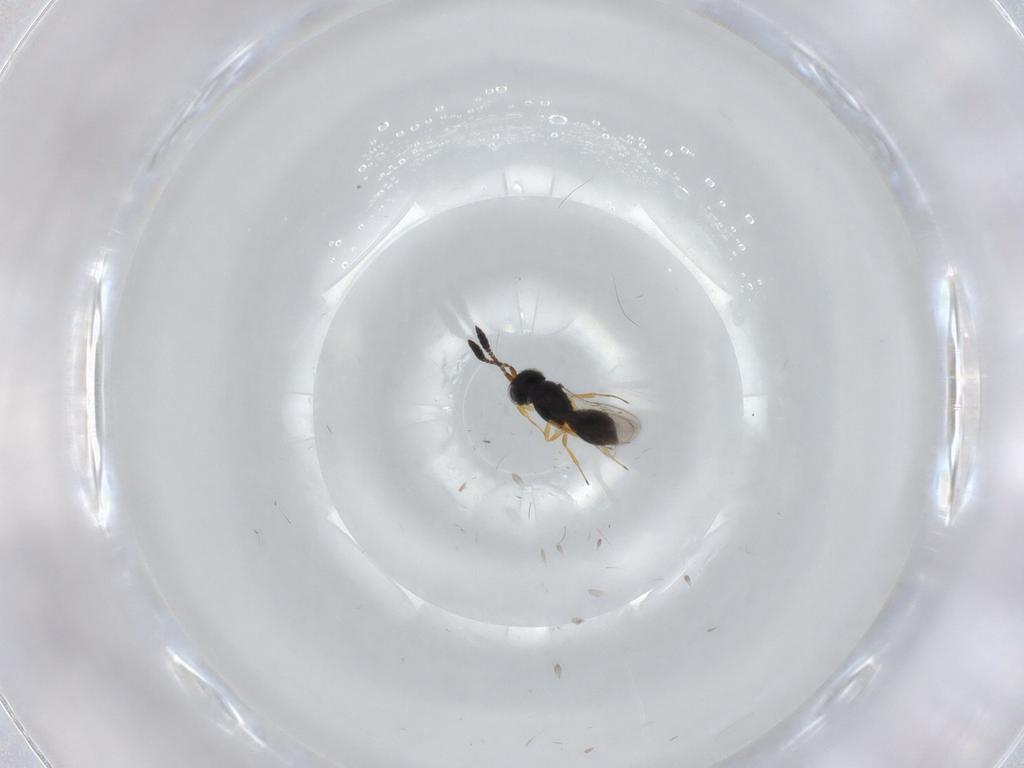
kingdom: Animalia
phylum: Arthropoda
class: Insecta
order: Hymenoptera
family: Scelionidae
